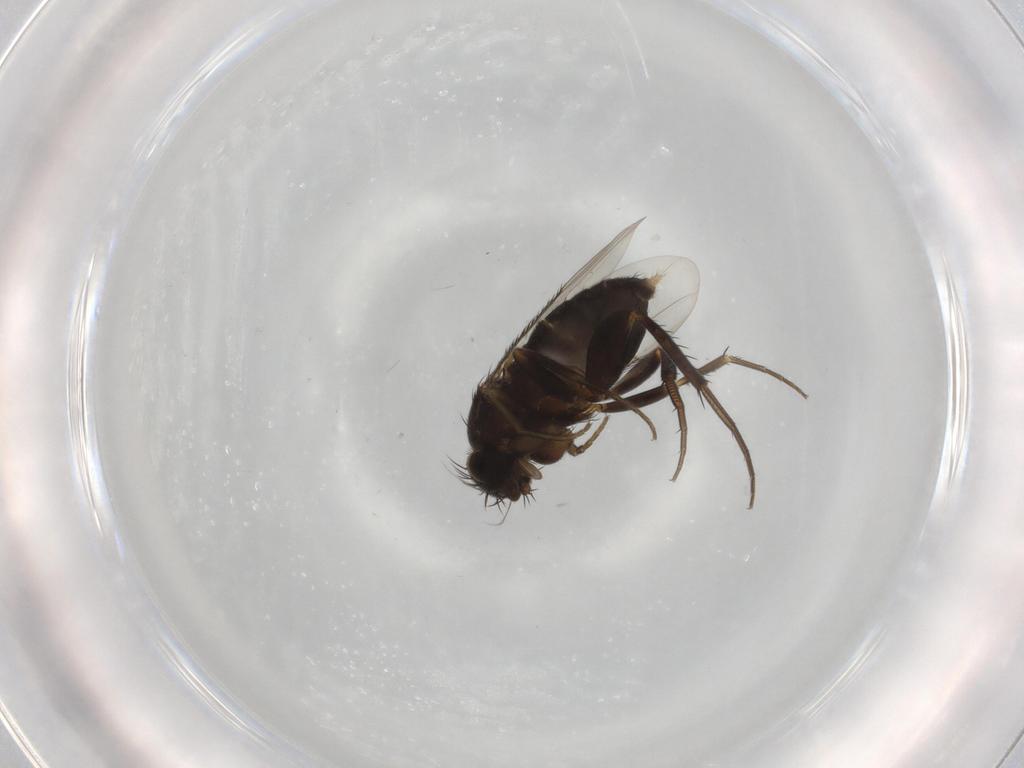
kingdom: Animalia
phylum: Arthropoda
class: Insecta
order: Diptera
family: Phoridae
